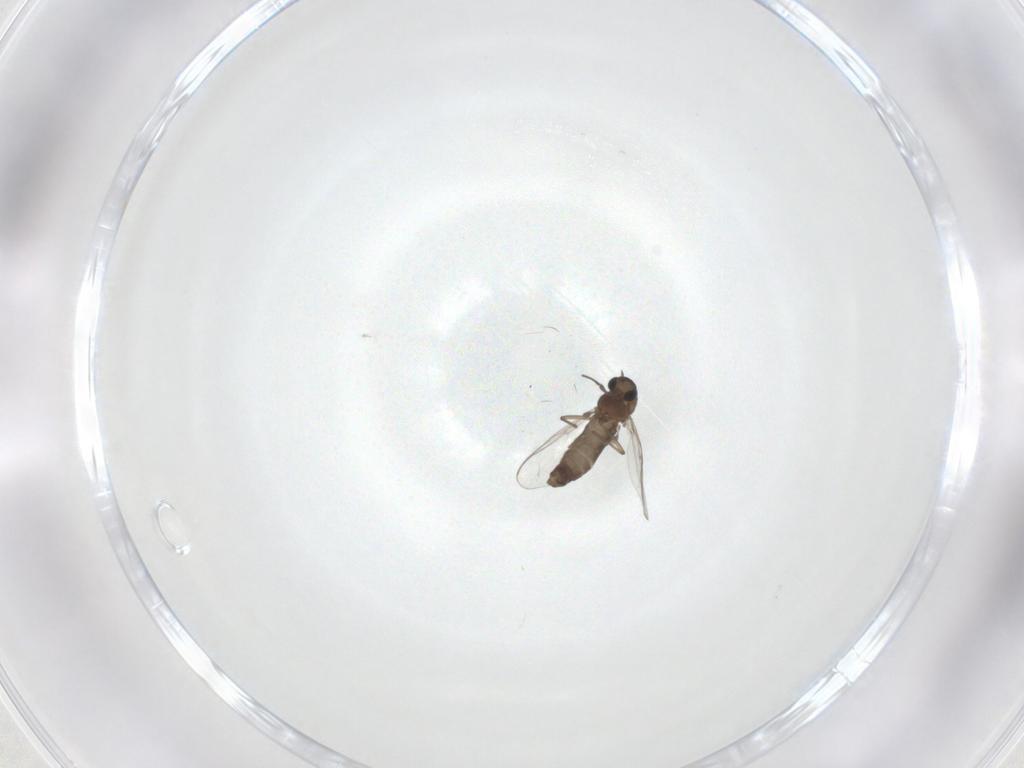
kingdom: Animalia
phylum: Arthropoda
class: Insecta
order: Diptera
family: Chironomidae
